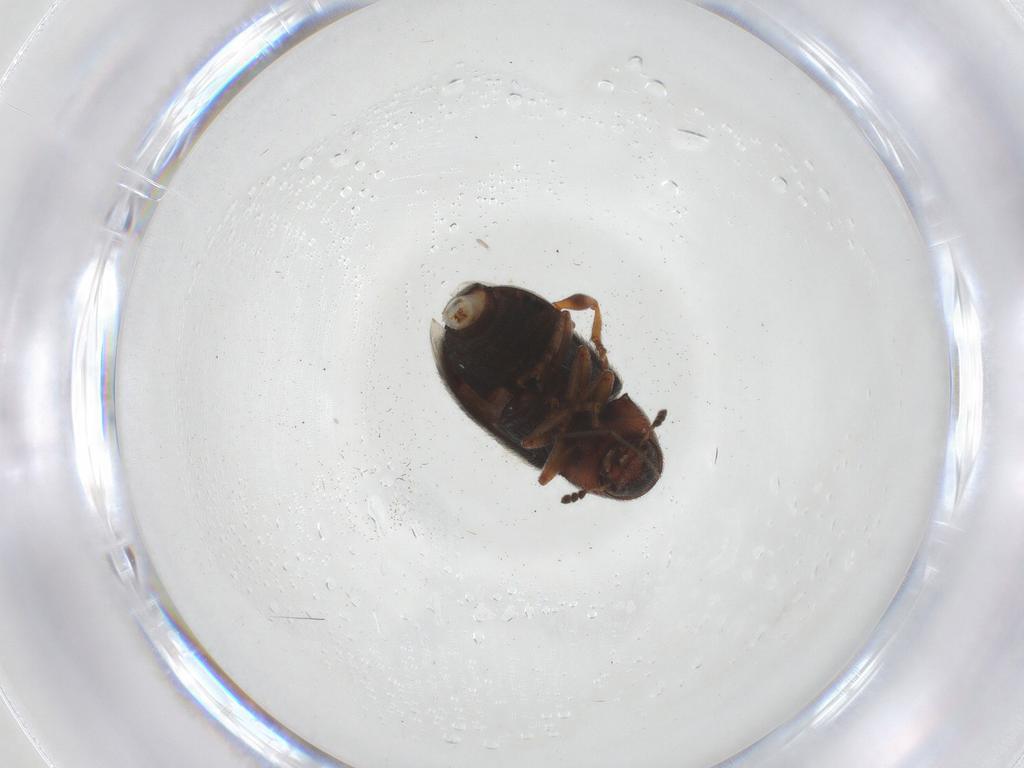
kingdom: Animalia
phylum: Arthropoda
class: Insecta
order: Coleoptera
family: Anthribidae
